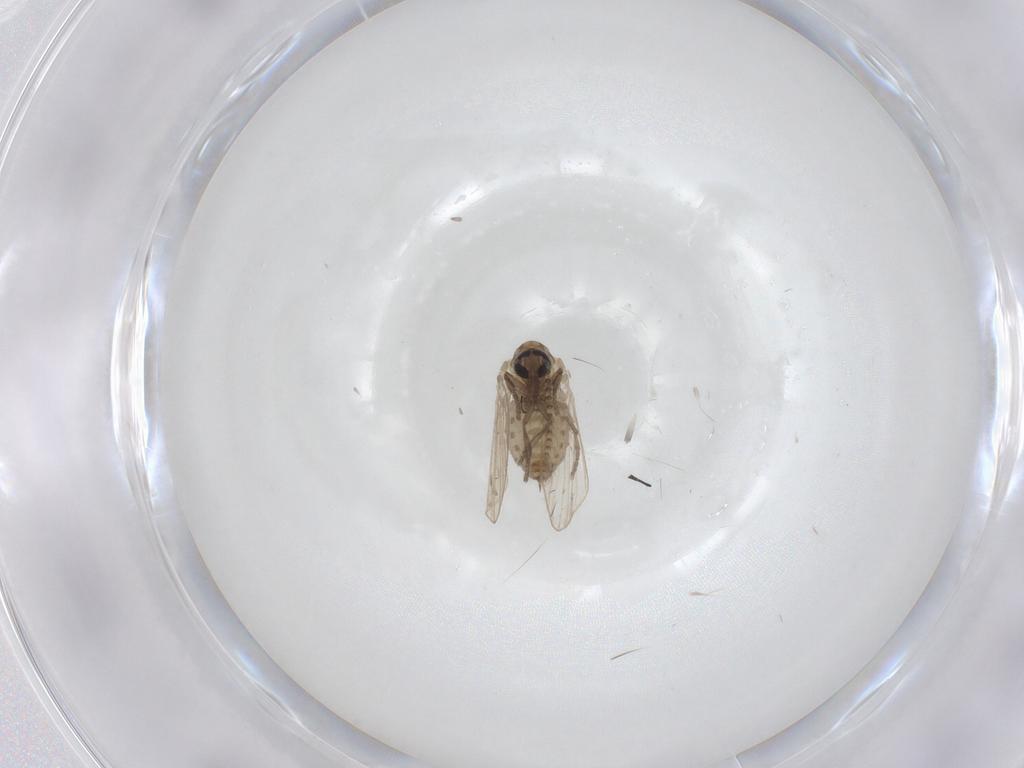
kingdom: Animalia
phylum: Arthropoda
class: Insecta
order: Diptera
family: Psychodidae
